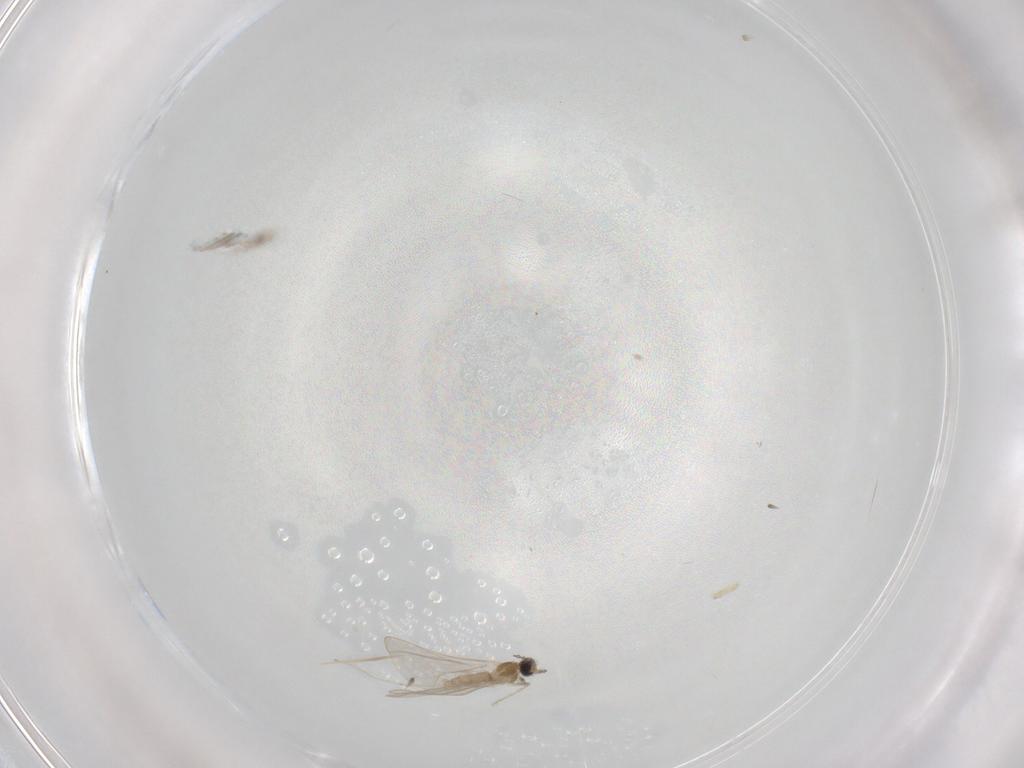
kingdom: Animalia
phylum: Arthropoda
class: Insecta
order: Diptera
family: Cecidomyiidae
